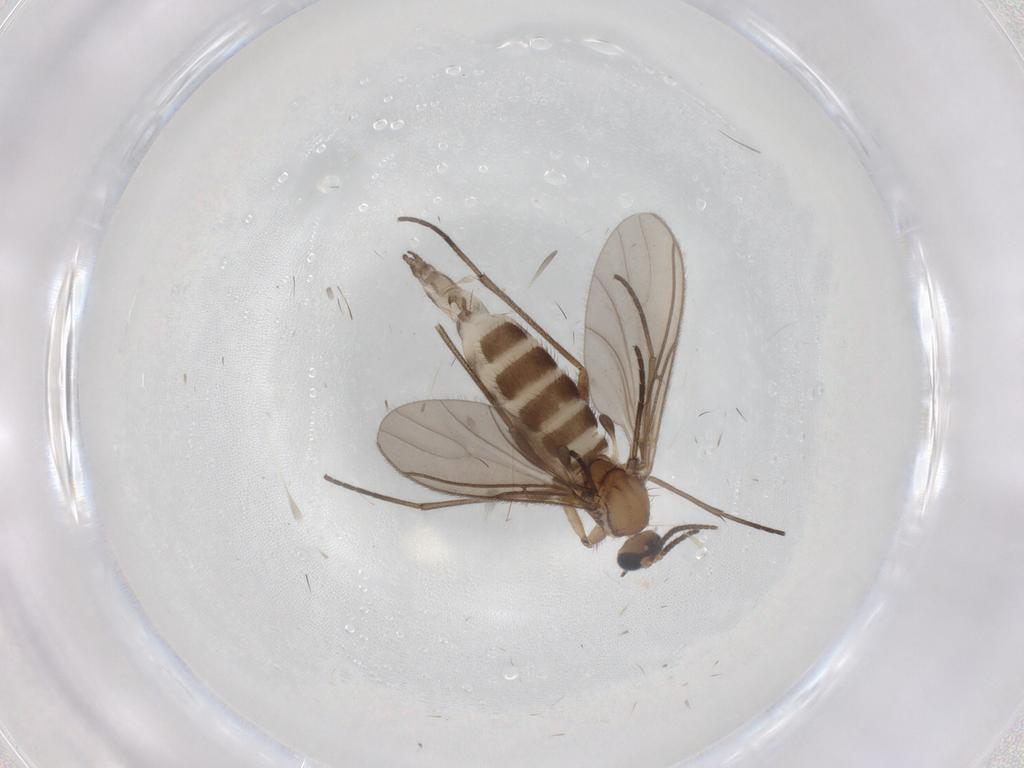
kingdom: Animalia
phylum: Arthropoda
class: Insecta
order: Diptera
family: Sciaridae
